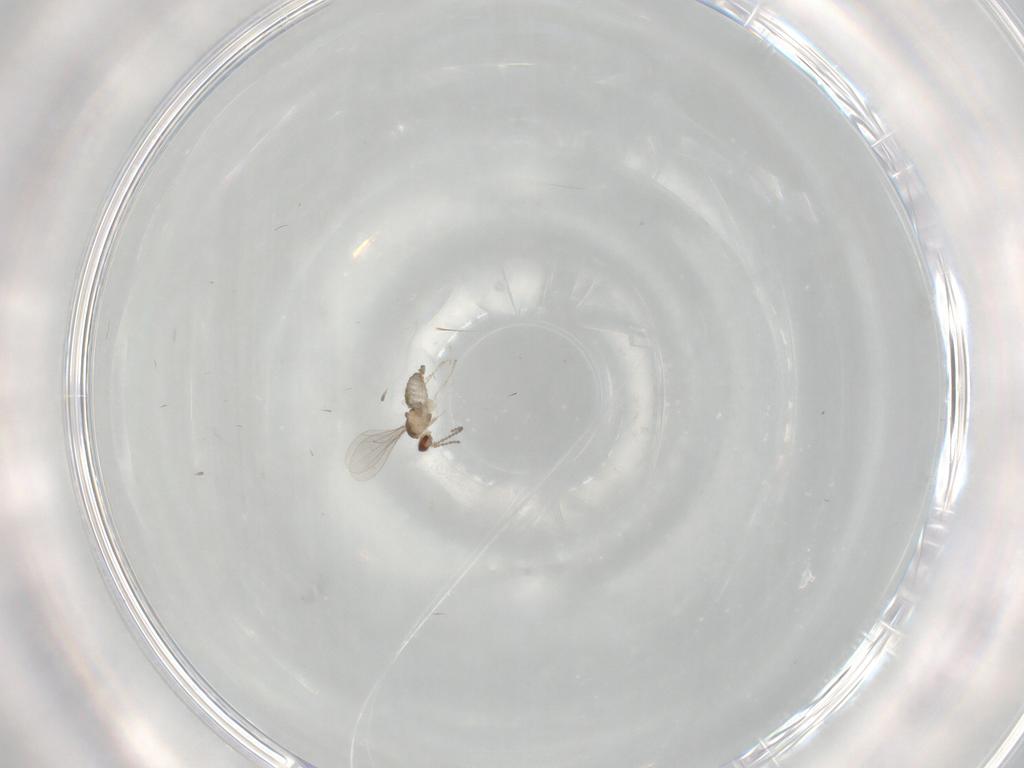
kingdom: Animalia
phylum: Arthropoda
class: Insecta
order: Diptera
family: Cecidomyiidae
